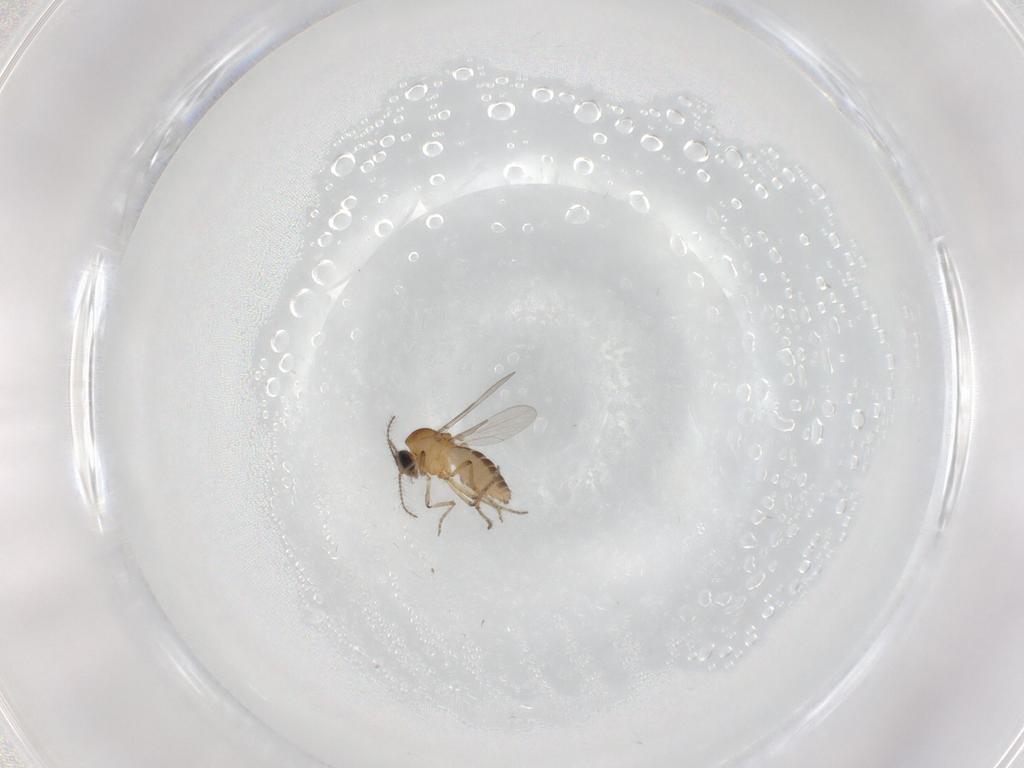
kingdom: Animalia
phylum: Arthropoda
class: Insecta
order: Diptera
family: Ceratopogonidae
